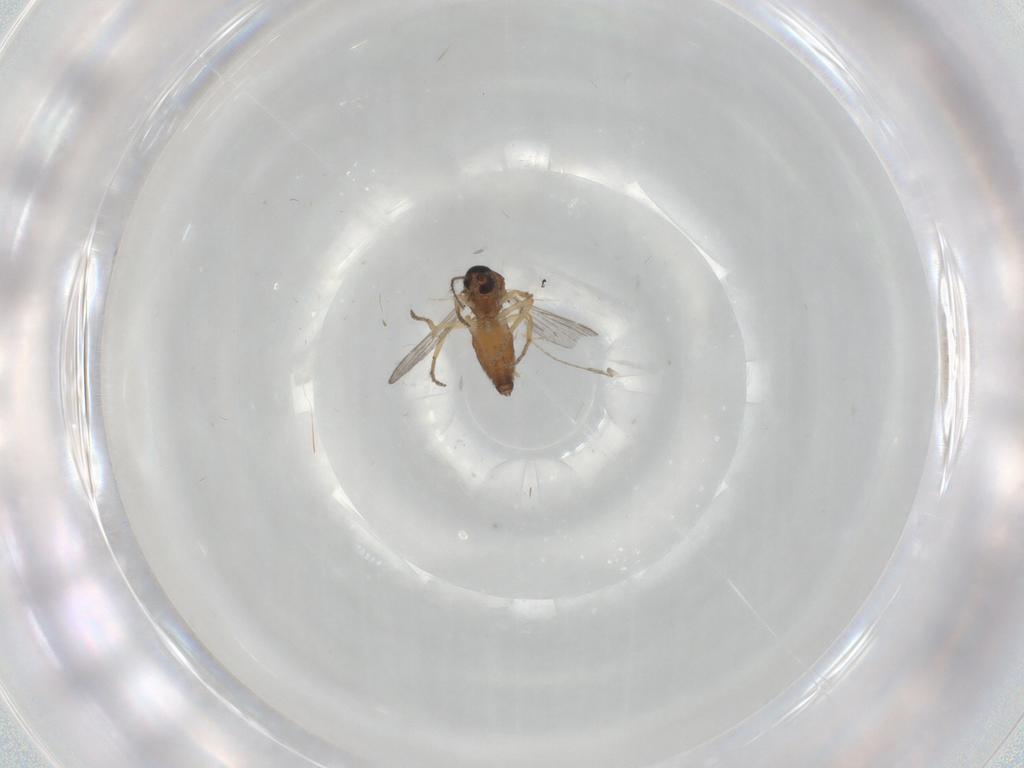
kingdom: Animalia
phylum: Arthropoda
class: Insecta
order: Diptera
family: Ceratopogonidae
